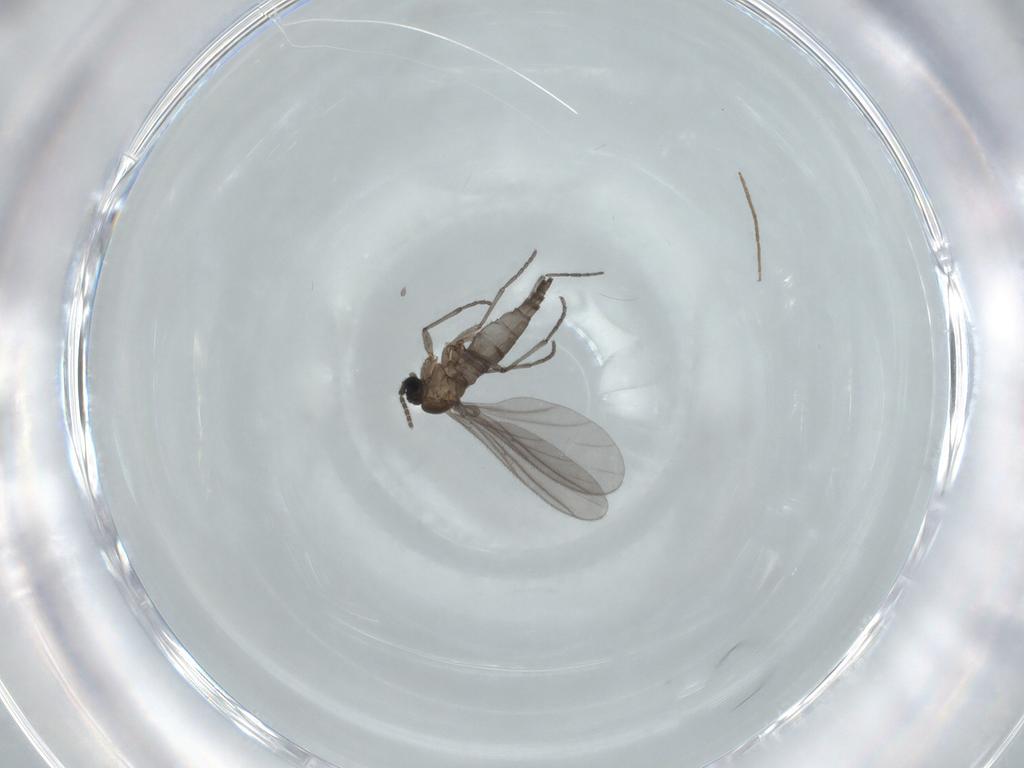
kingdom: Animalia
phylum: Arthropoda
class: Insecta
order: Diptera
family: Sciaridae
